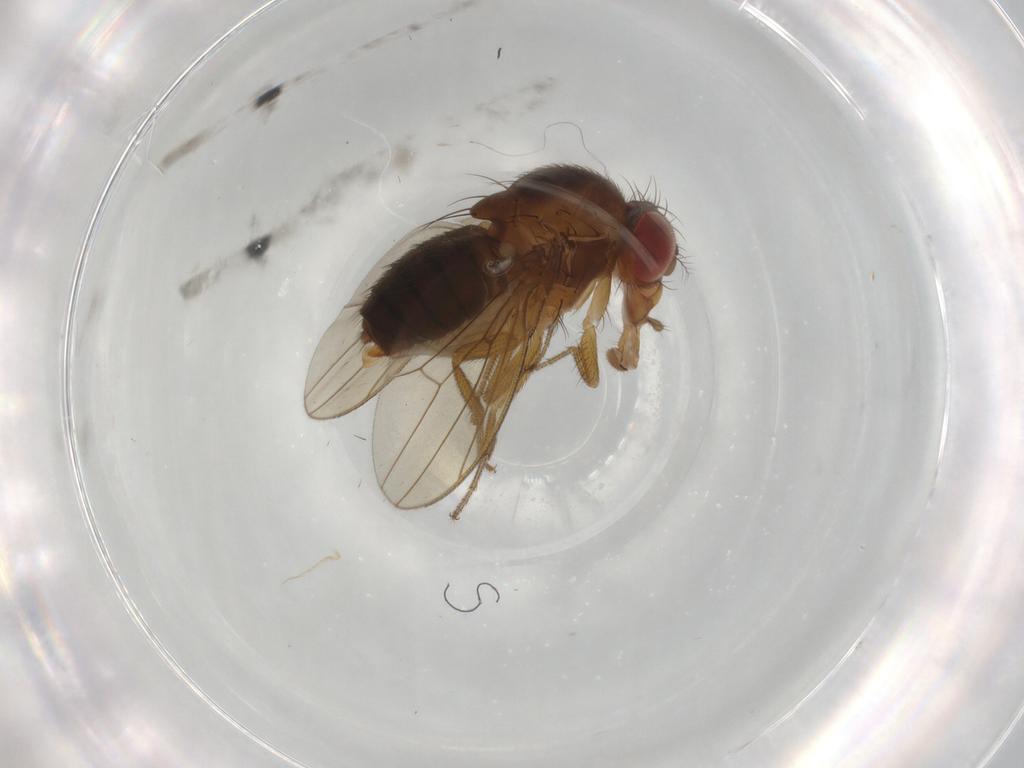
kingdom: Animalia
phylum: Arthropoda
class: Insecta
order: Diptera
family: Drosophilidae
